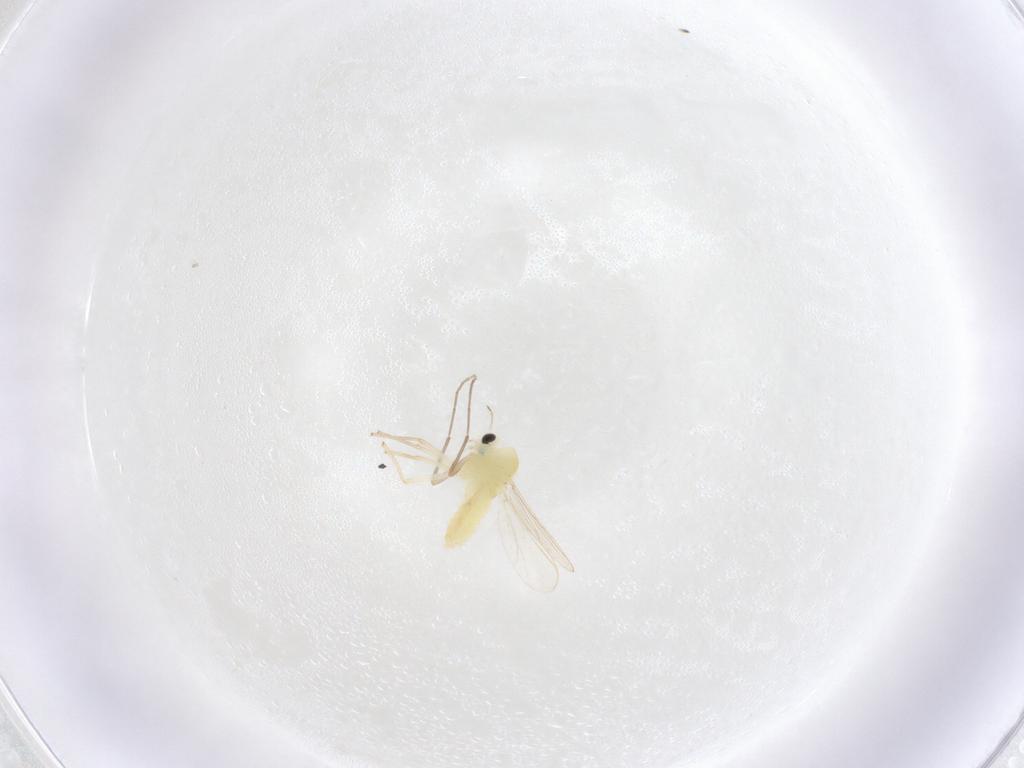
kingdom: Animalia
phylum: Arthropoda
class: Insecta
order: Diptera
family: Chironomidae
